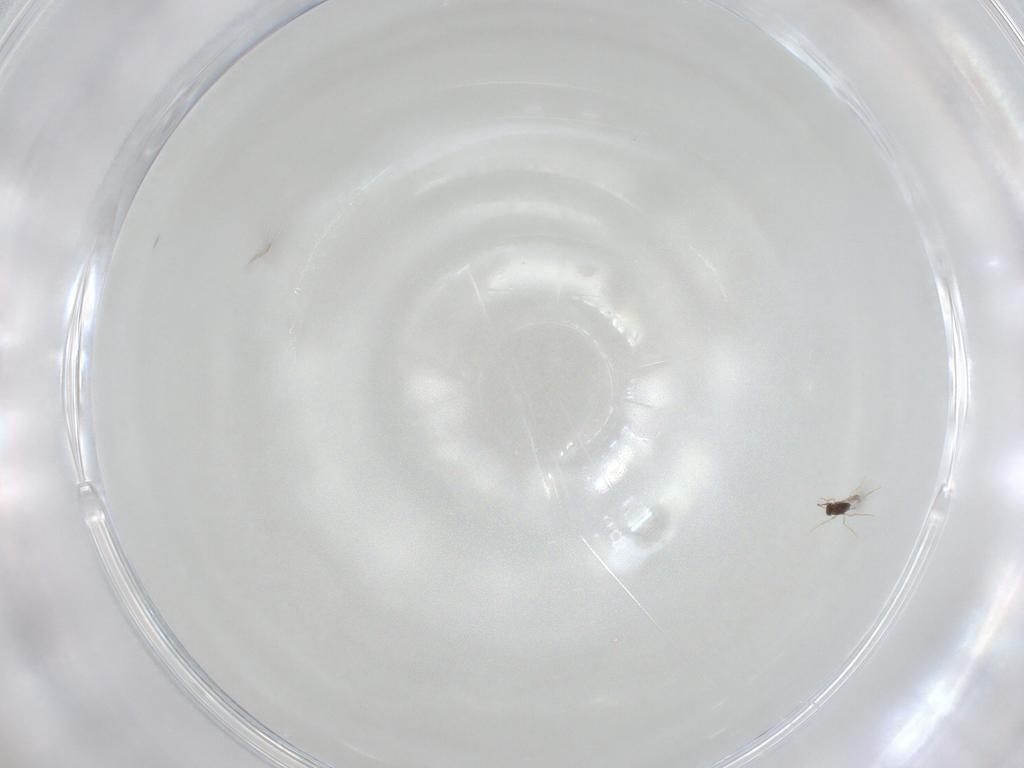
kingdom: Animalia
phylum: Arthropoda
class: Insecta
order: Hymenoptera
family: Mymaridae
